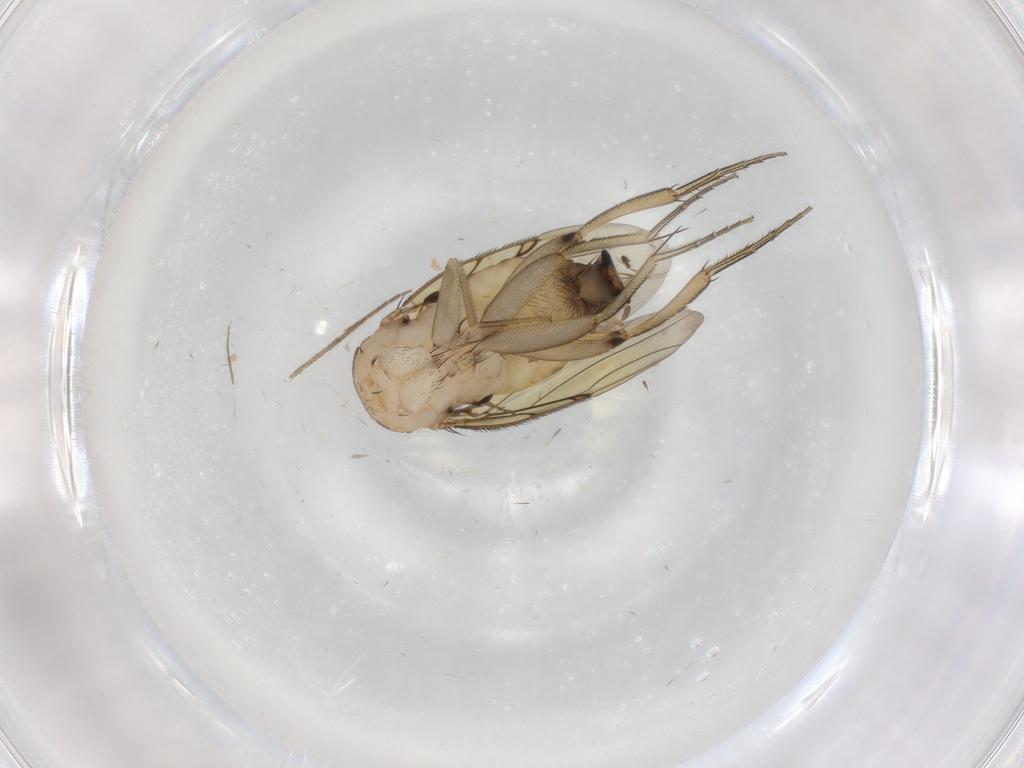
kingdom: Animalia
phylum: Arthropoda
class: Insecta
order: Diptera
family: Phoridae
